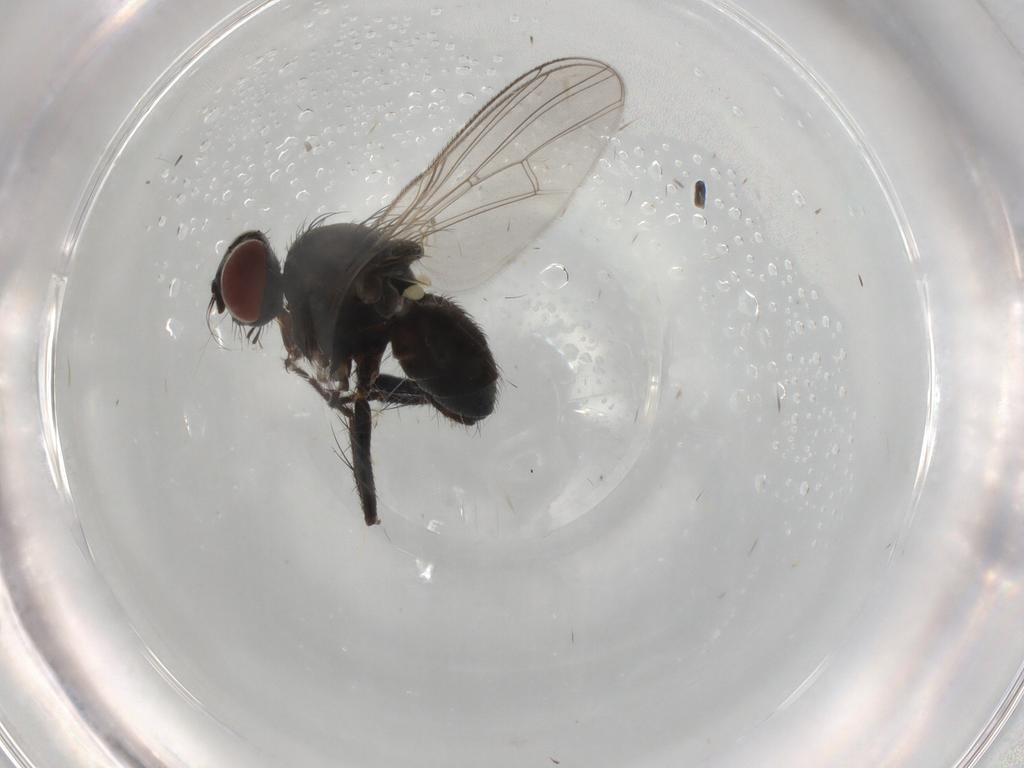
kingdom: Animalia
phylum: Arthropoda
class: Insecta
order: Diptera
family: Muscidae
